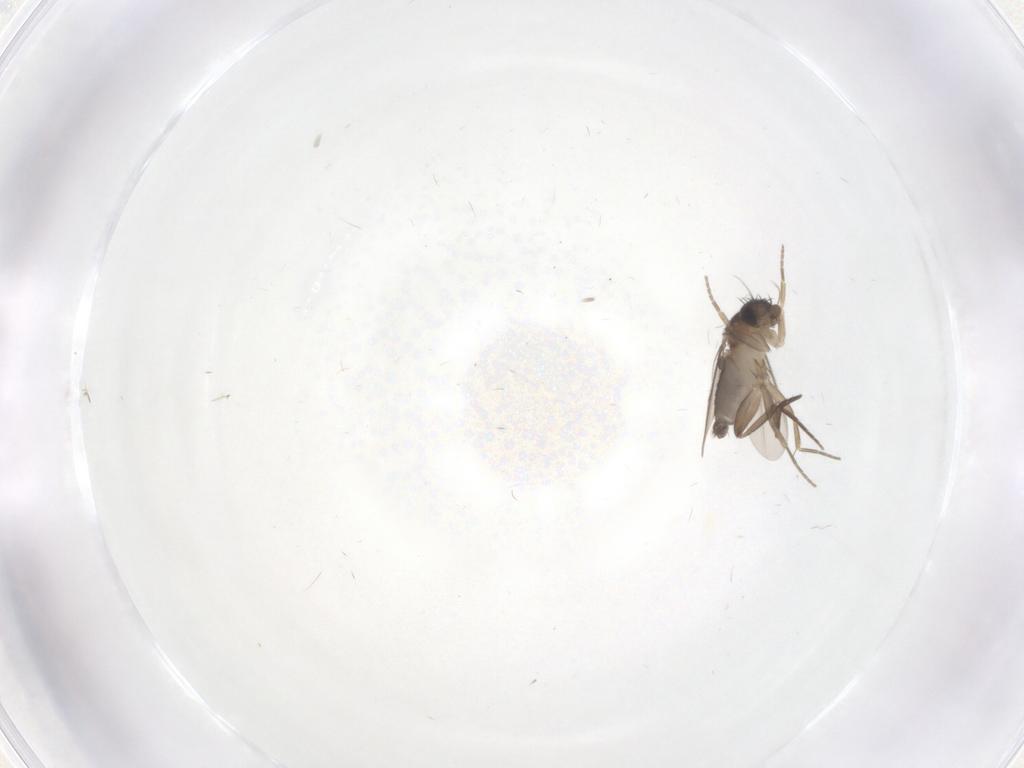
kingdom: Animalia
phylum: Arthropoda
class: Insecta
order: Diptera
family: Phoridae
